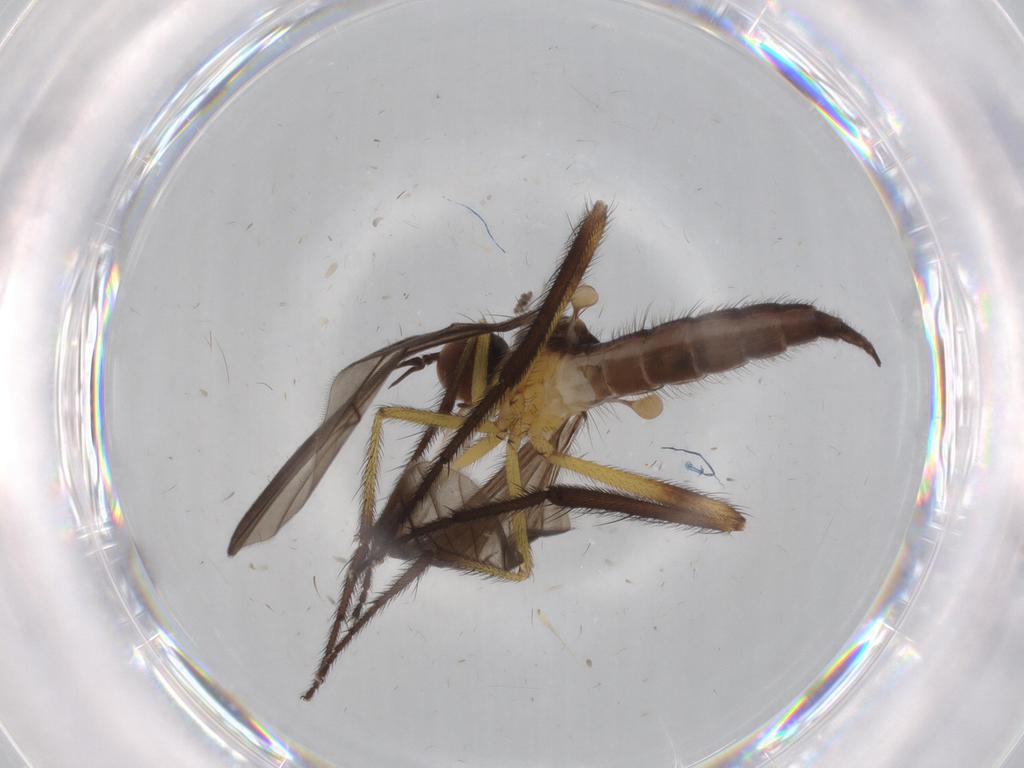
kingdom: Animalia
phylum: Arthropoda
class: Insecta
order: Diptera
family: Empididae
